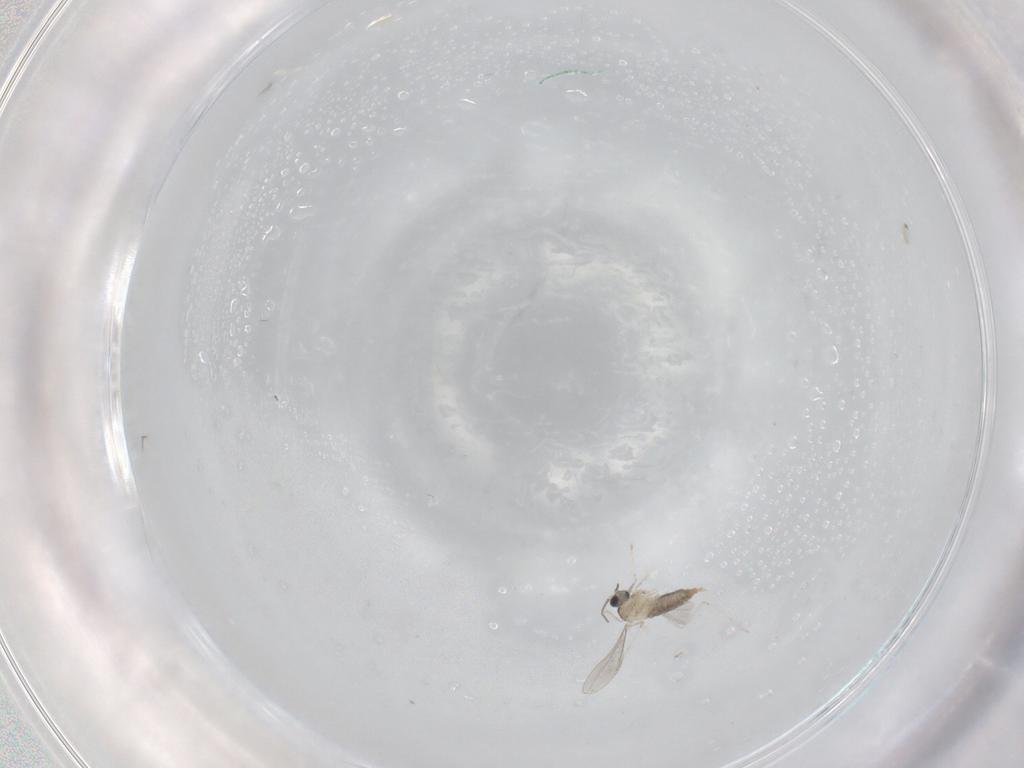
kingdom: Animalia
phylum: Arthropoda
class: Insecta
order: Diptera
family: Cecidomyiidae
